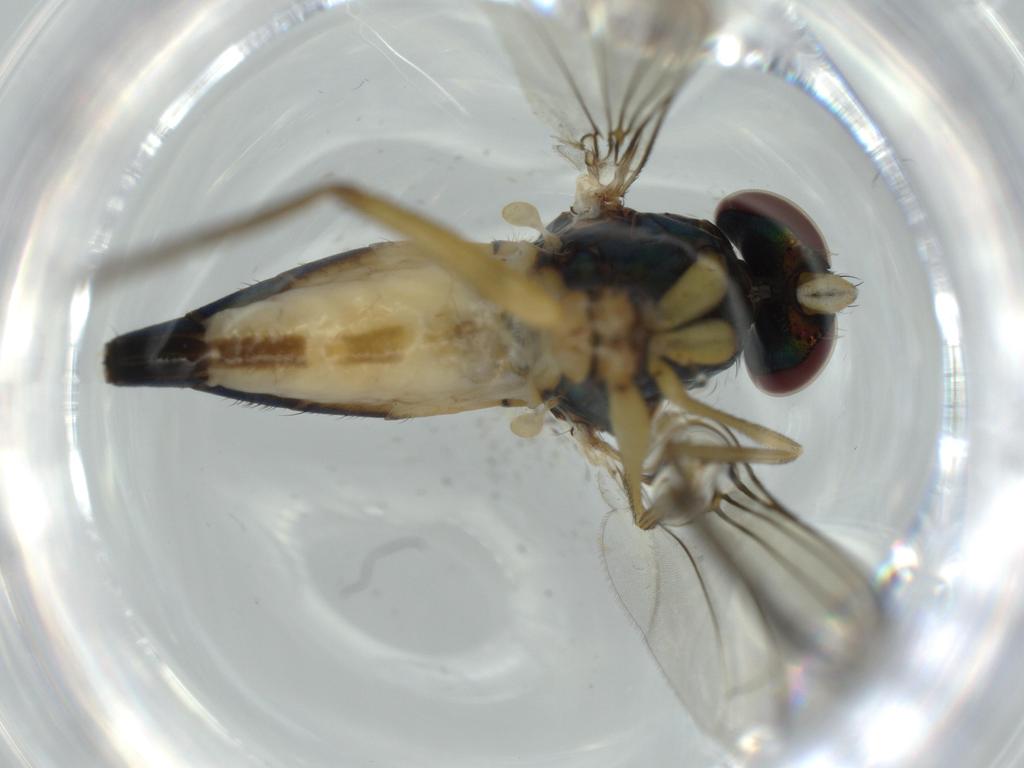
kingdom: Animalia
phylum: Arthropoda
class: Insecta
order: Diptera
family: Dolichopodidae
